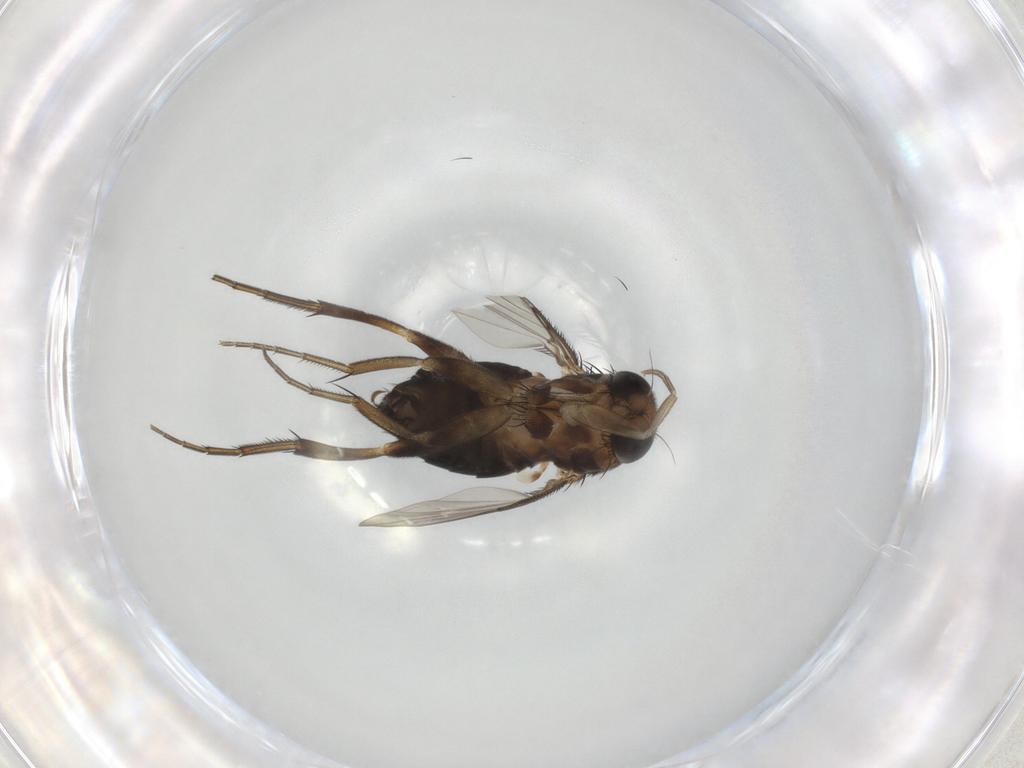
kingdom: Animalia
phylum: Arthropoda
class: Insecta
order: Diptera
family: Phoridae
